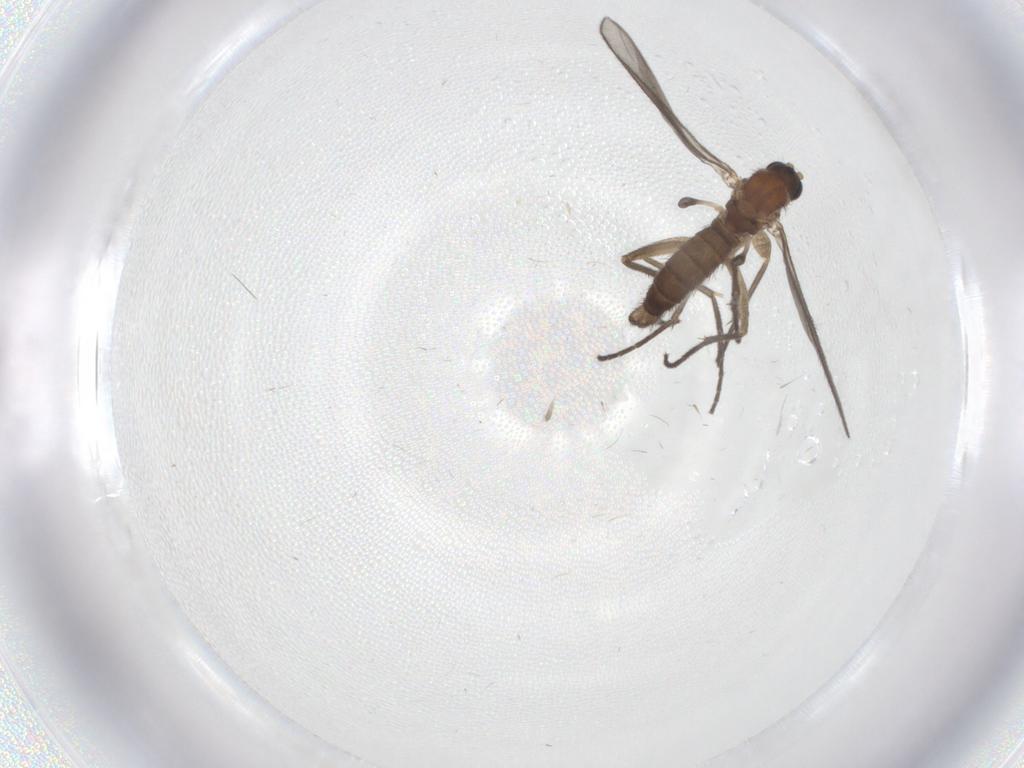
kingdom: Animalia
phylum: Arthropoda
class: Insecta
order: Diptera
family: Sciaridae
